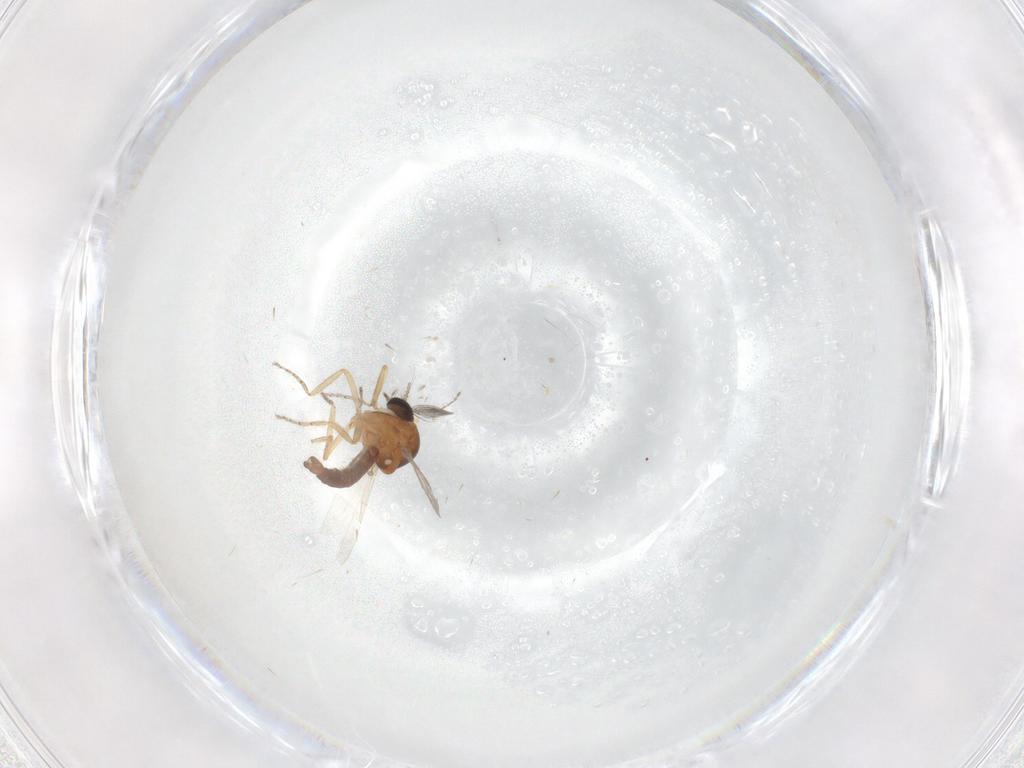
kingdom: Animalia
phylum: Arthropoda
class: Insecta
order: Diptera
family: Ceratopogonidae
